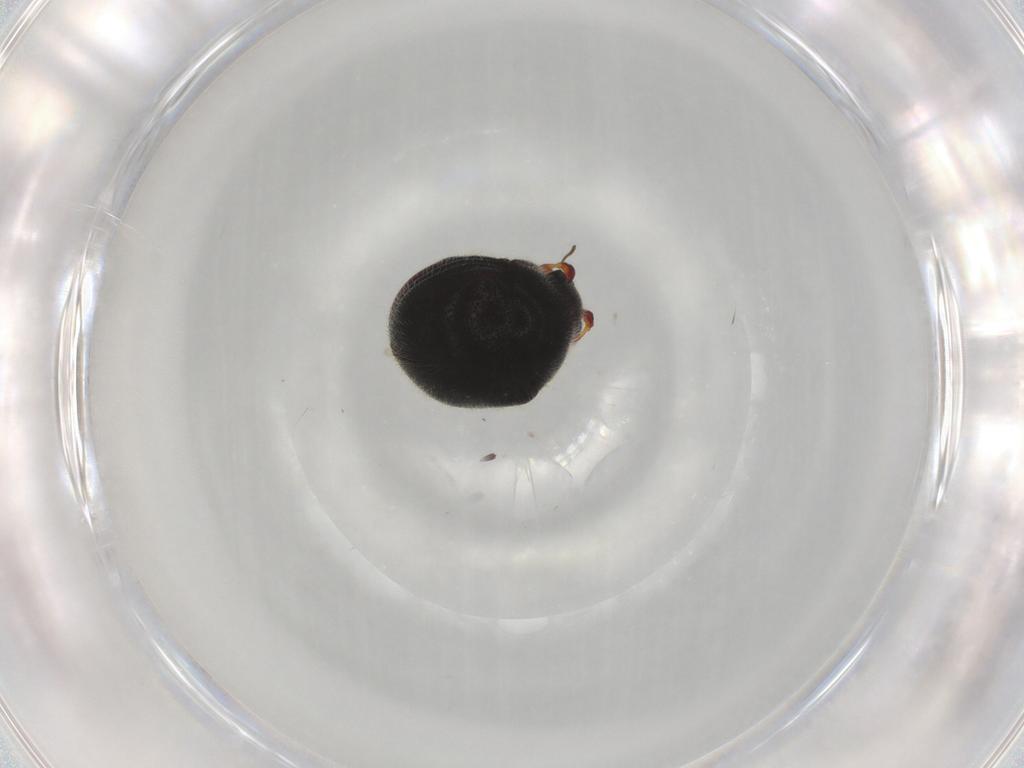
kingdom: Animalia
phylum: Arthropoda
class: Insecta
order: Coleoptera
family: Ptinidae
